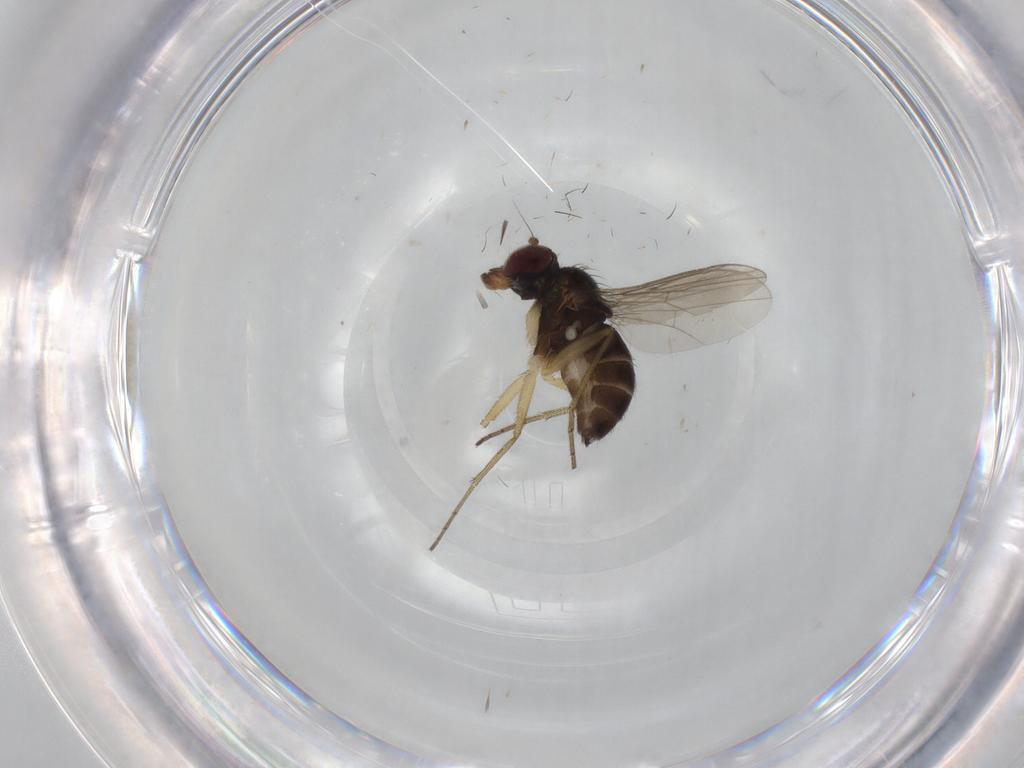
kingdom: Animalia
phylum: Arthropoda
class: Insecta
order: Diptera
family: Dolichopodidae
